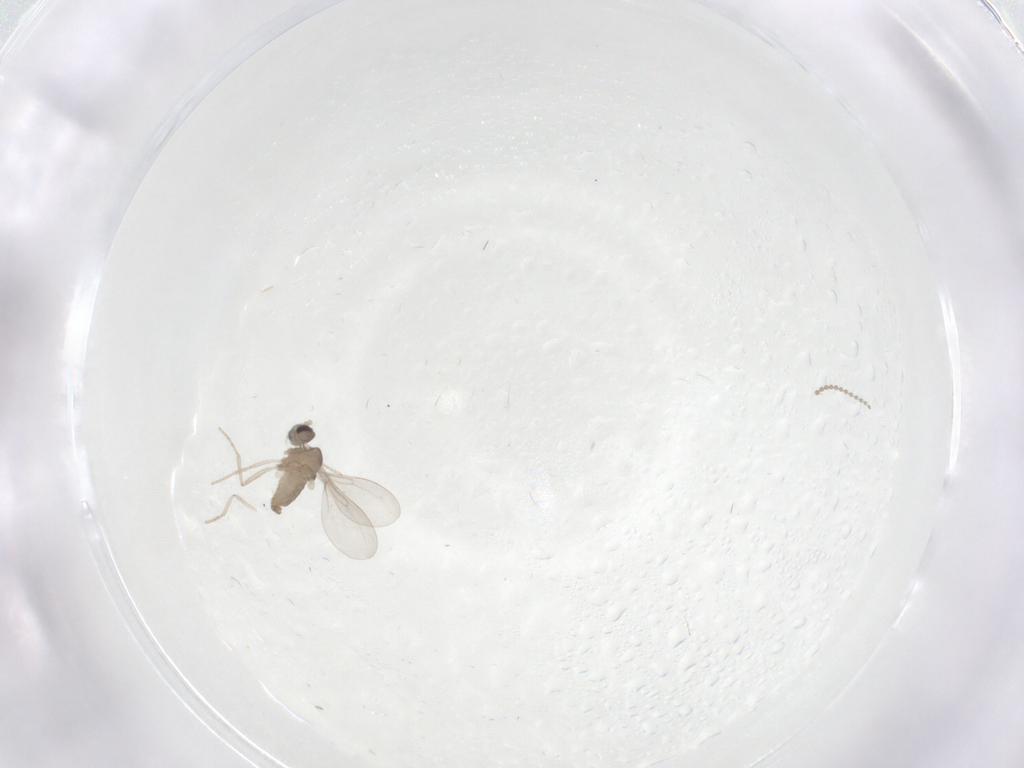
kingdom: Animalia
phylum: Arthropoda
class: Insecta
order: Diptera
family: Cecidomyiidae
